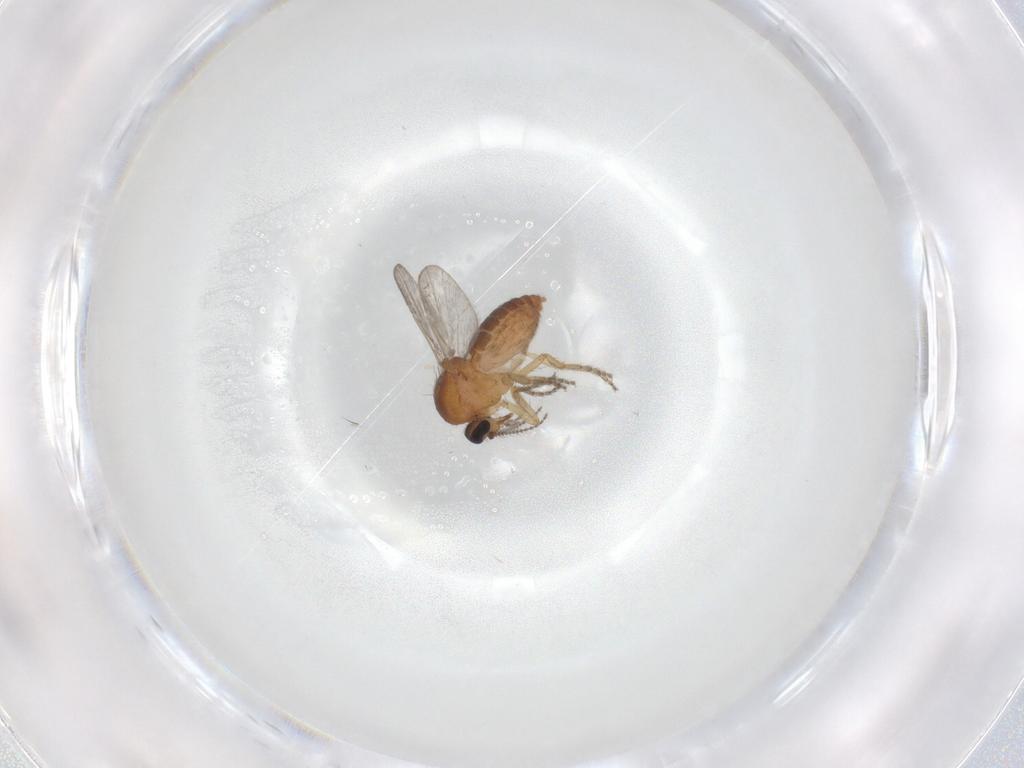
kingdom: Animalia
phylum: Arthropoda
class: Insecta
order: Diptera
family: Ceratopogonidae
